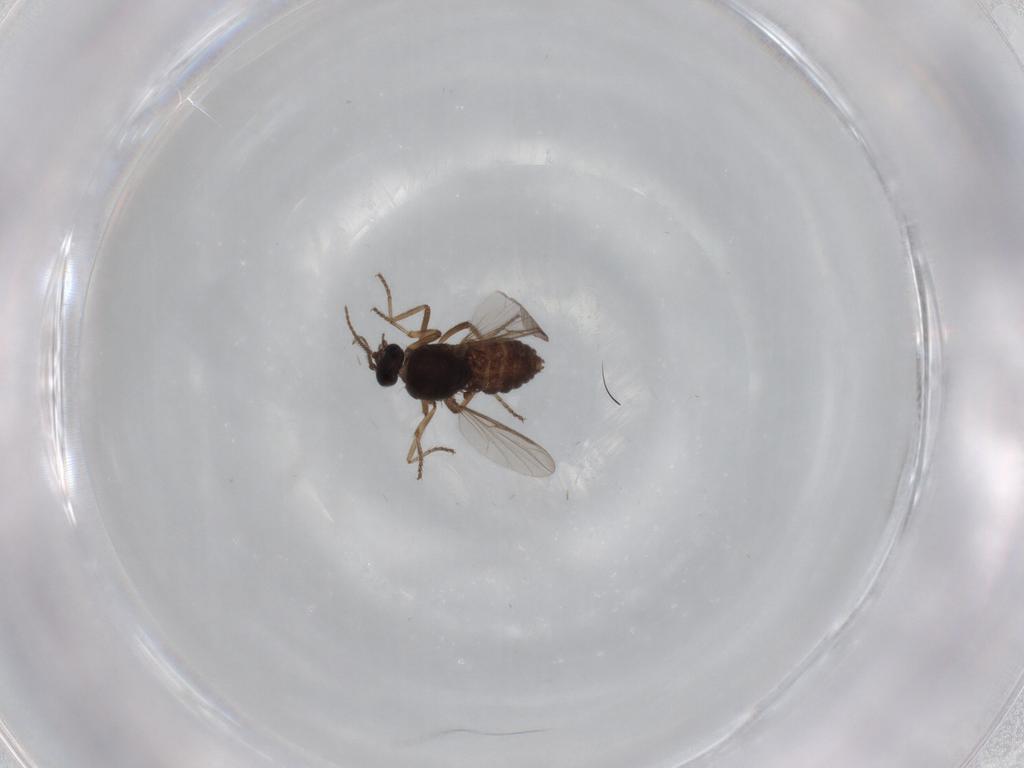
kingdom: Animalia
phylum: Arthropoda
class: Insecta
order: Diptera
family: Ceratopogonidae
